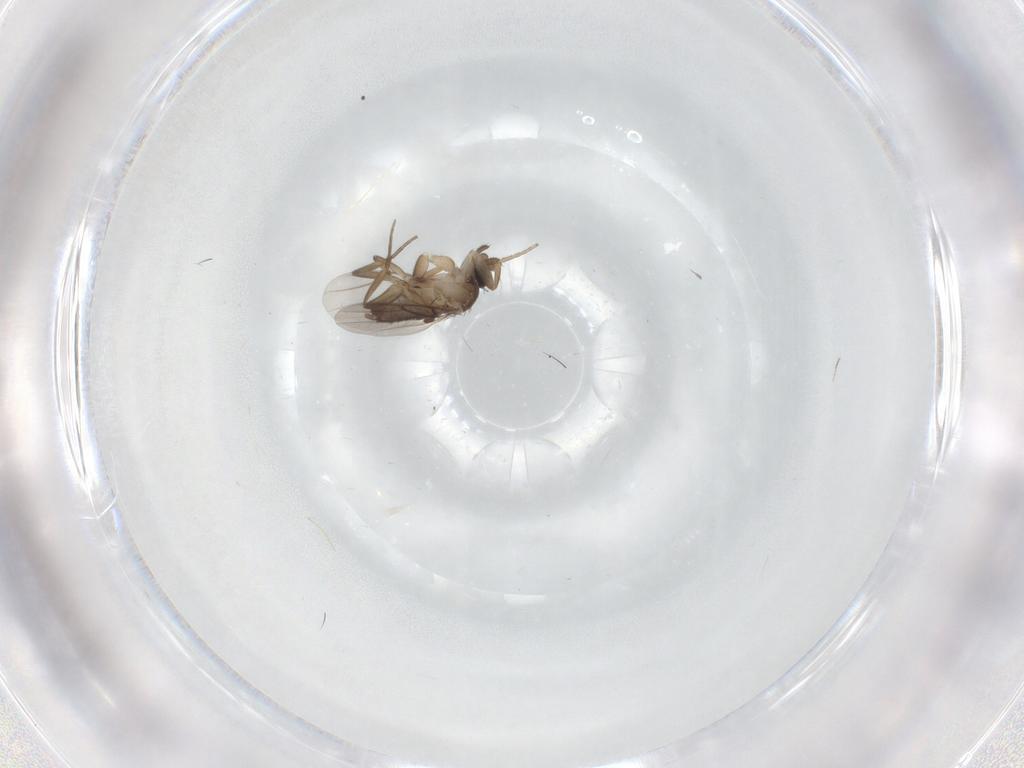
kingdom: Animalia
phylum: Arthropoda
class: Insecta
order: Diptera
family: Phoridae
